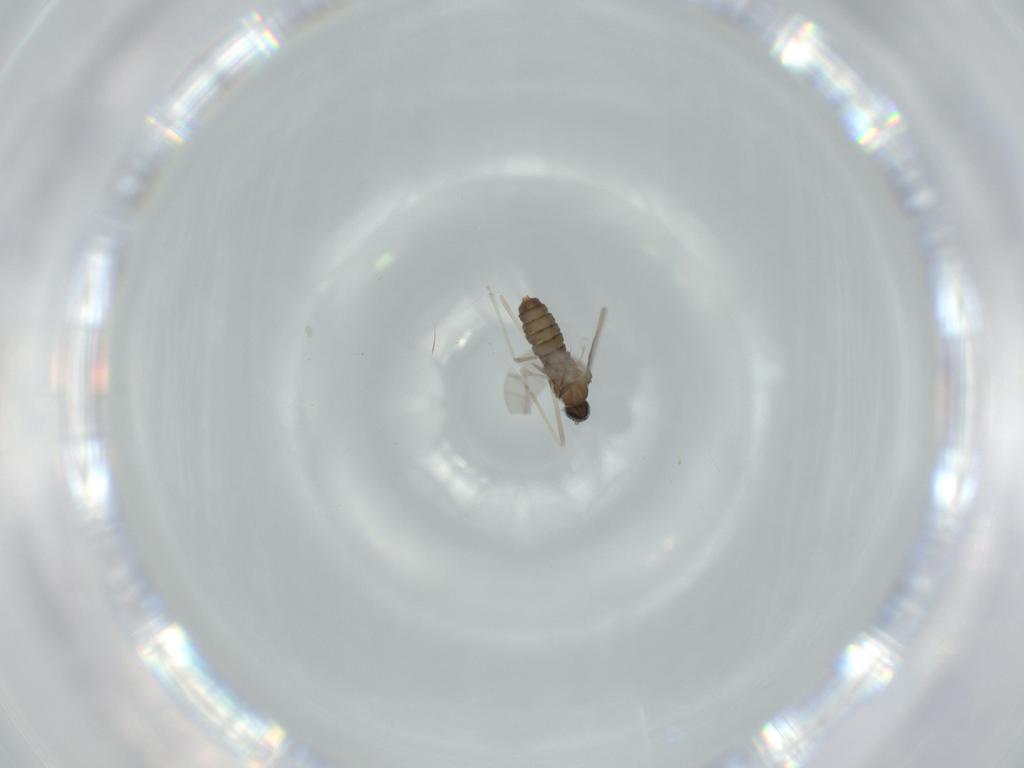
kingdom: Animalia
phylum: Arthropoda
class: Insecta
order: Diptera
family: Cecidomyiidae
